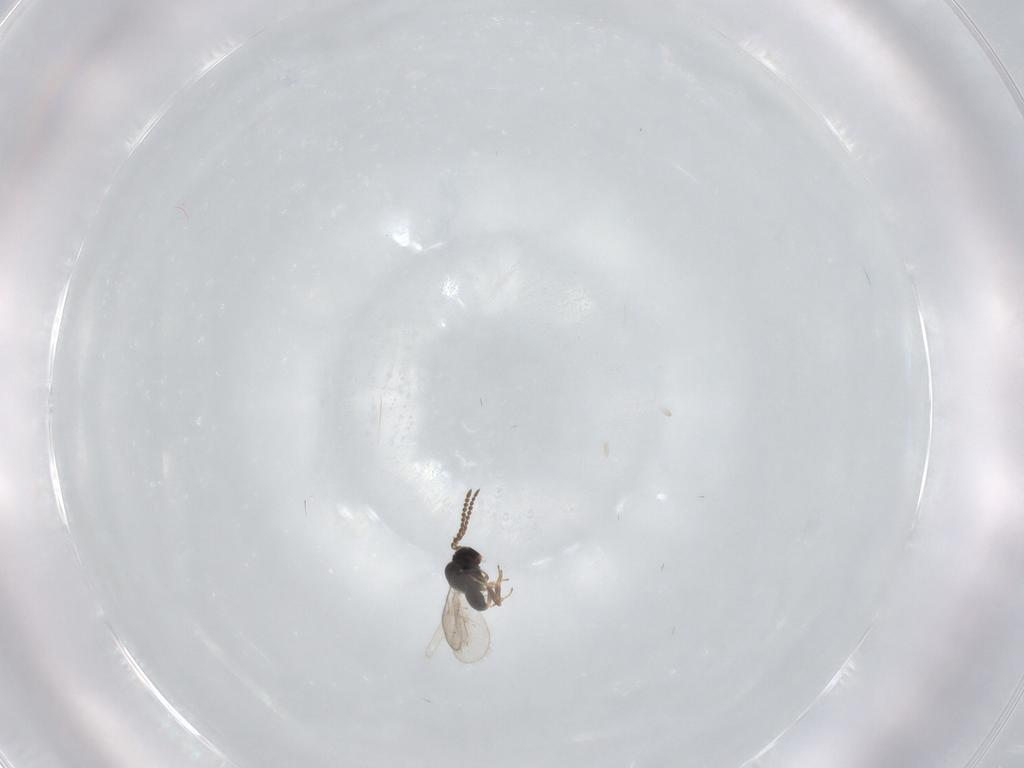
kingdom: Animalia
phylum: Arthropoda
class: Insecta
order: Hymenoptera
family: Scelionidae
